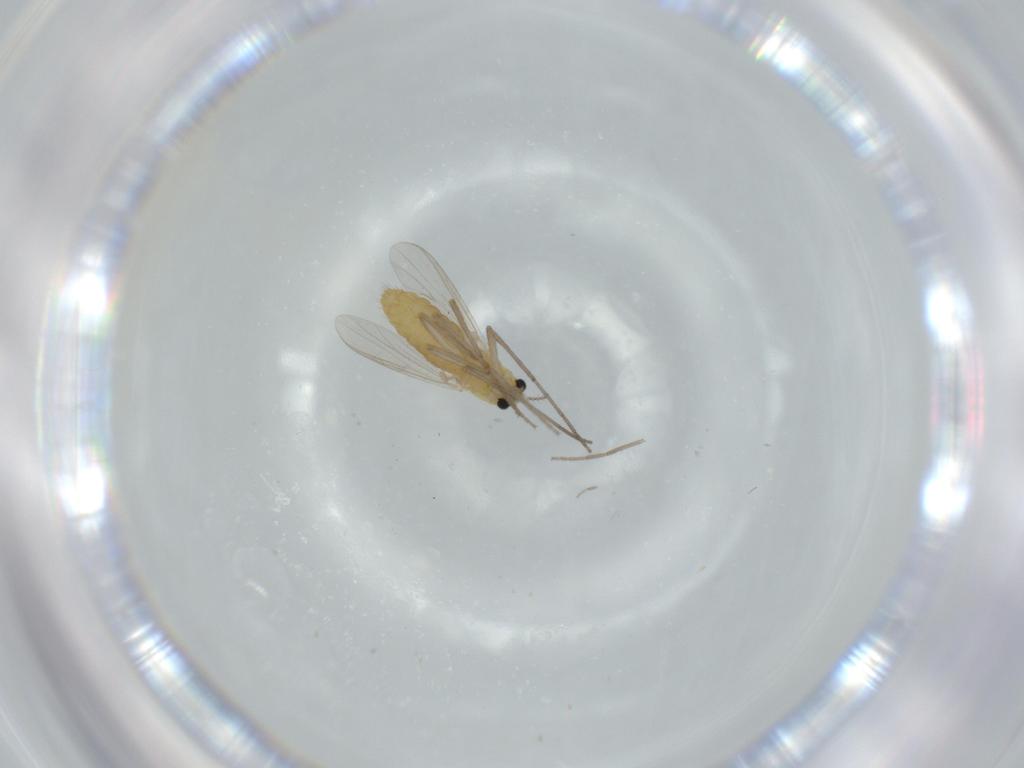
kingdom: Animalia
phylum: Arthropoda
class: Insecta
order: Diptera
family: Chironomidae
